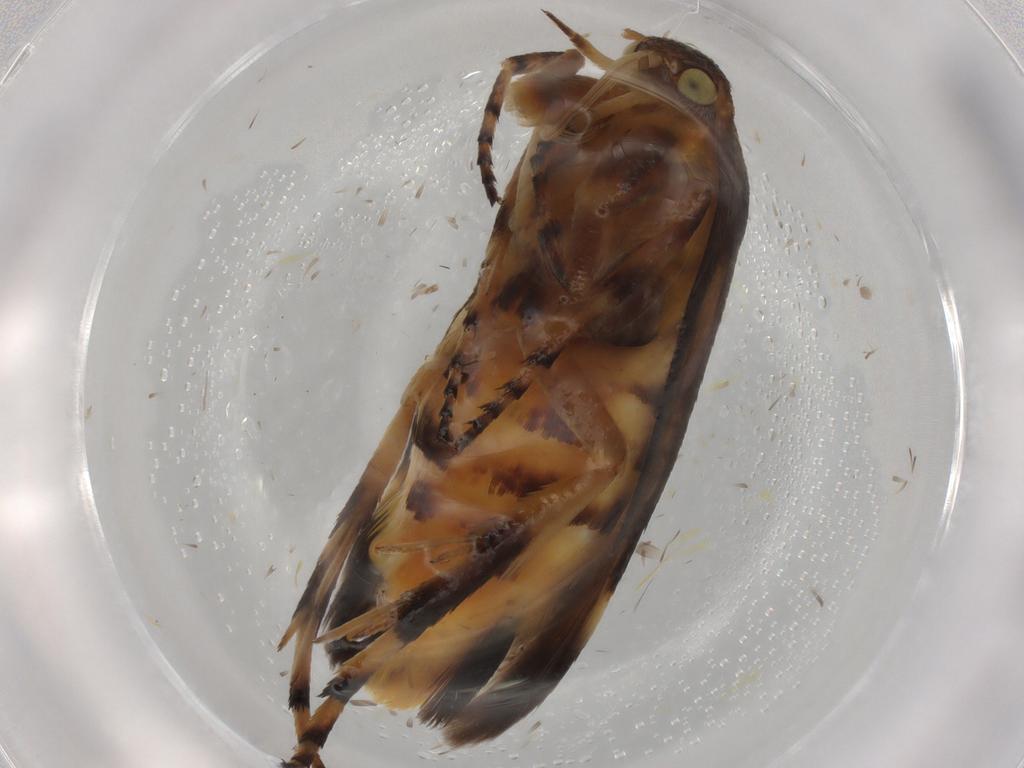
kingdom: Animalia
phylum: Arthropoda
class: Insecta
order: Lepidoptera
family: Scythrididae
